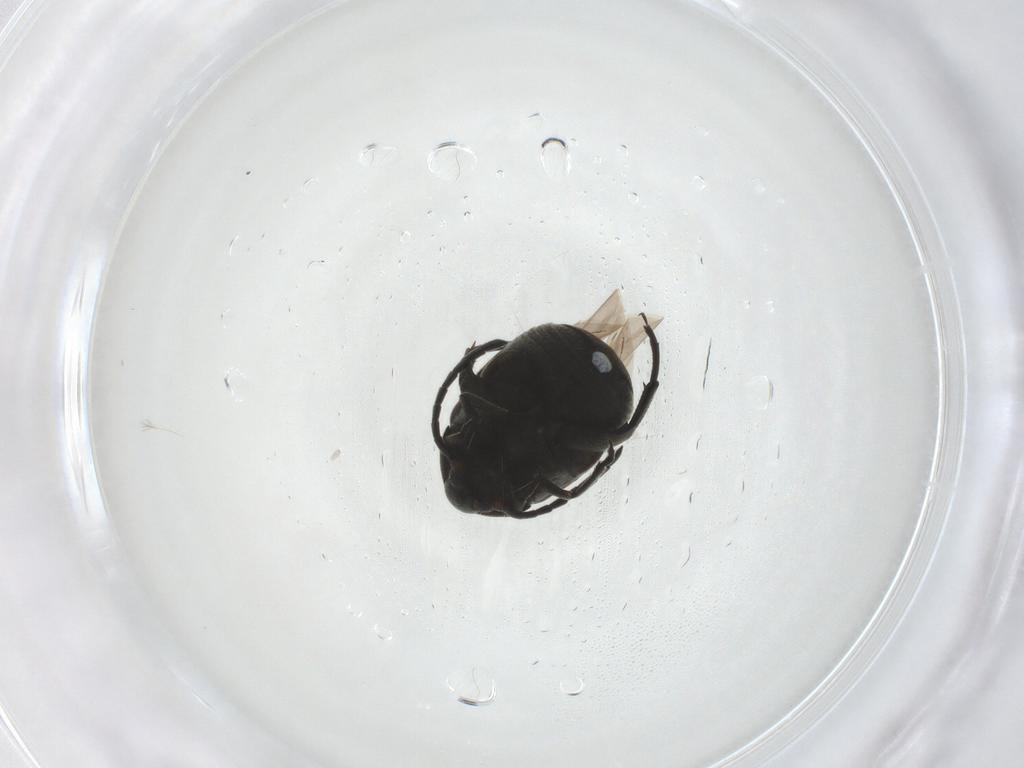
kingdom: Animalia
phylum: Arthropoda
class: Insecta
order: Coleoptera
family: Chrysomelidae
